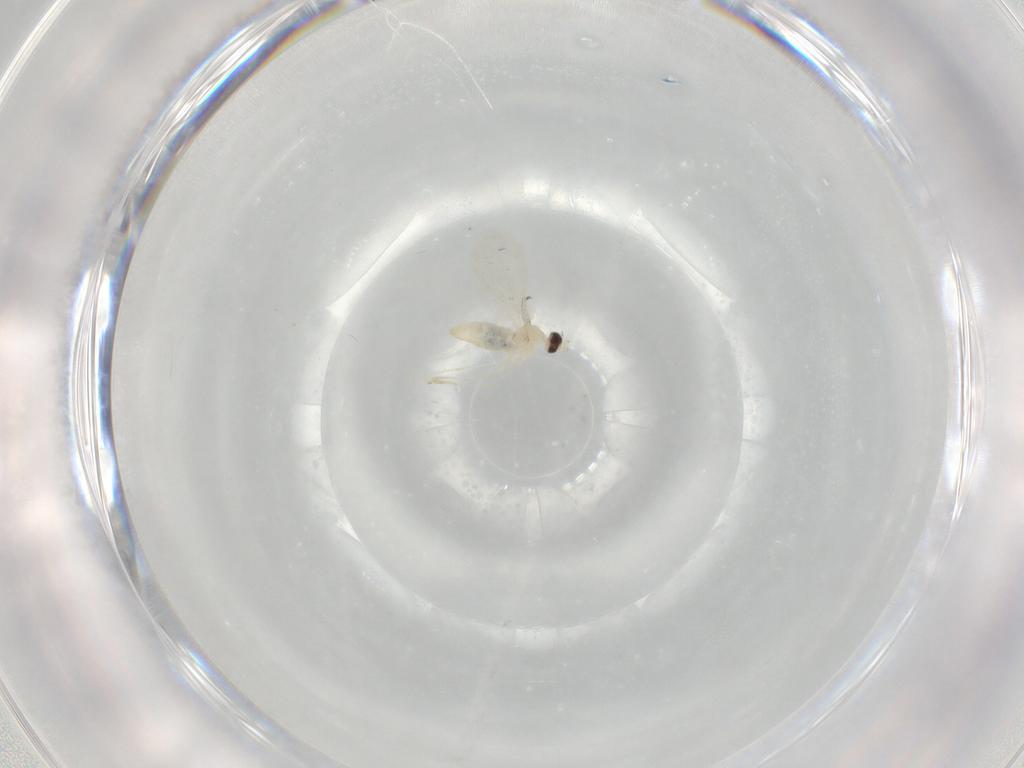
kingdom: Animalia
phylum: Arthropoda
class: Insecta
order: Diptera
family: Cecidomyiidae
